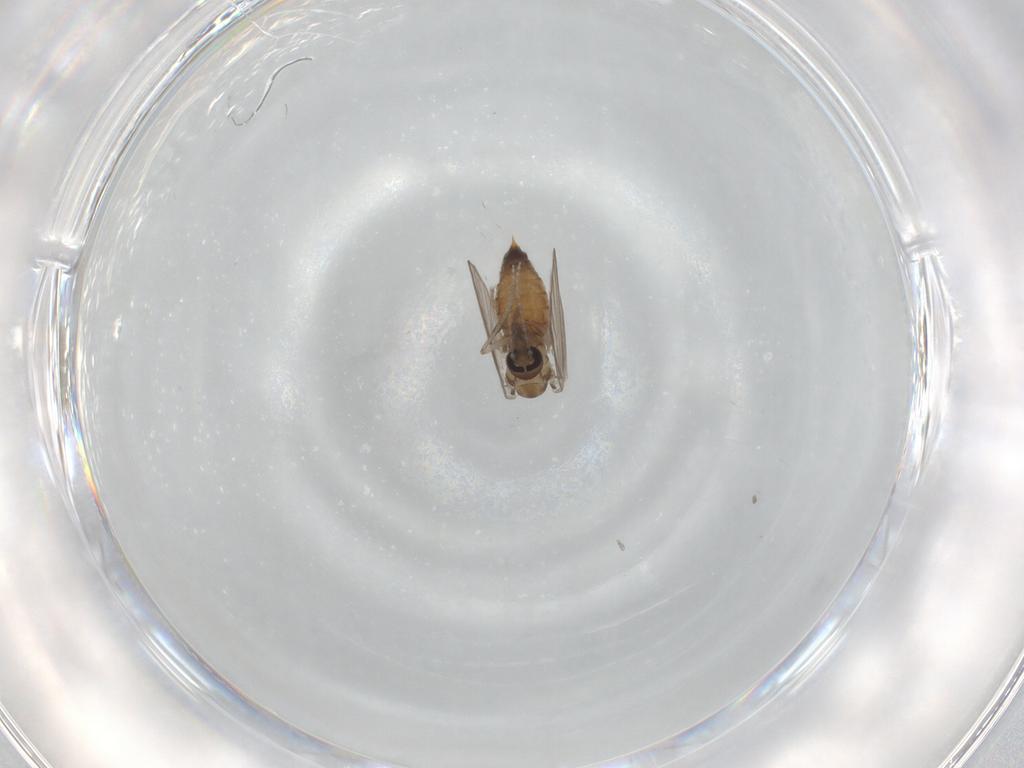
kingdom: Animalia
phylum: Arthropoda
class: Insecta
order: Diptera
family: Psychodidae
